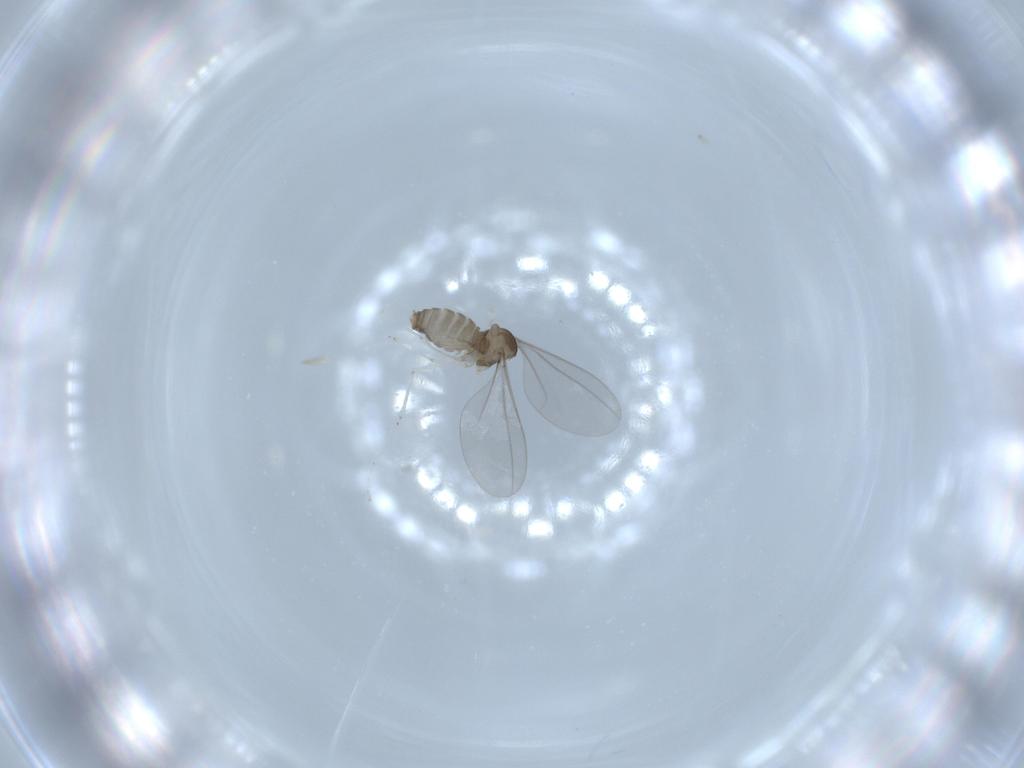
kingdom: Animalia
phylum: Arthropoda
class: Insecta
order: Diptera
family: Cecidomyiidae
